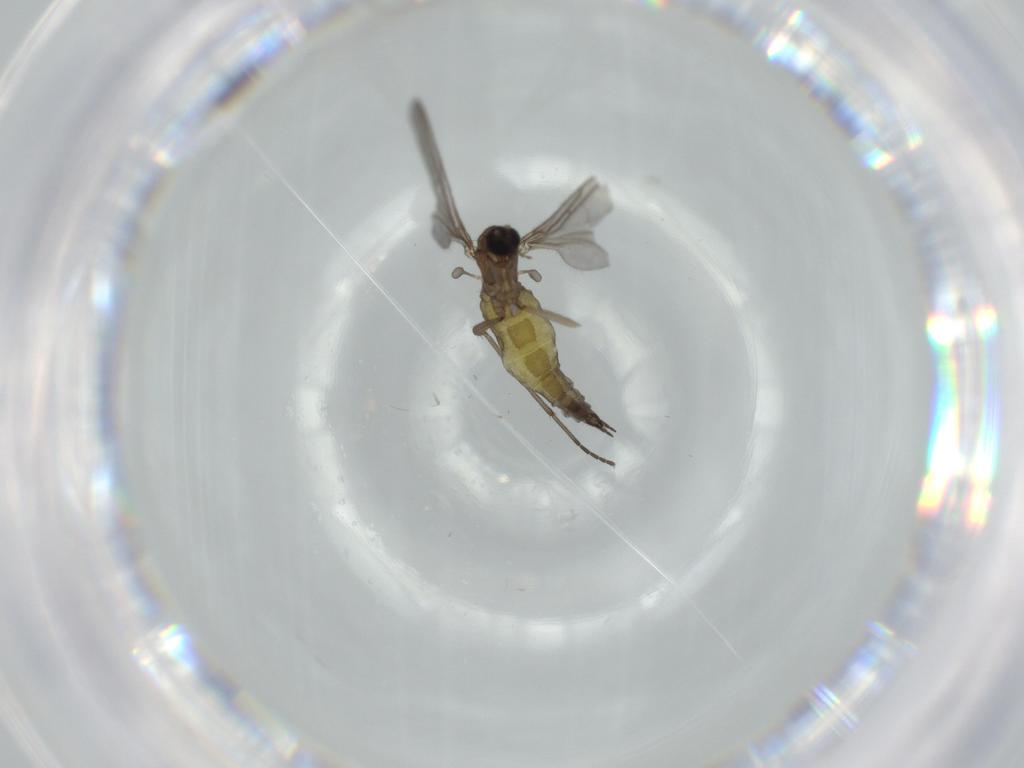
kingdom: Animalia
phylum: Arthropoda
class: Insecta
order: Diptera
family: Sciaridae
